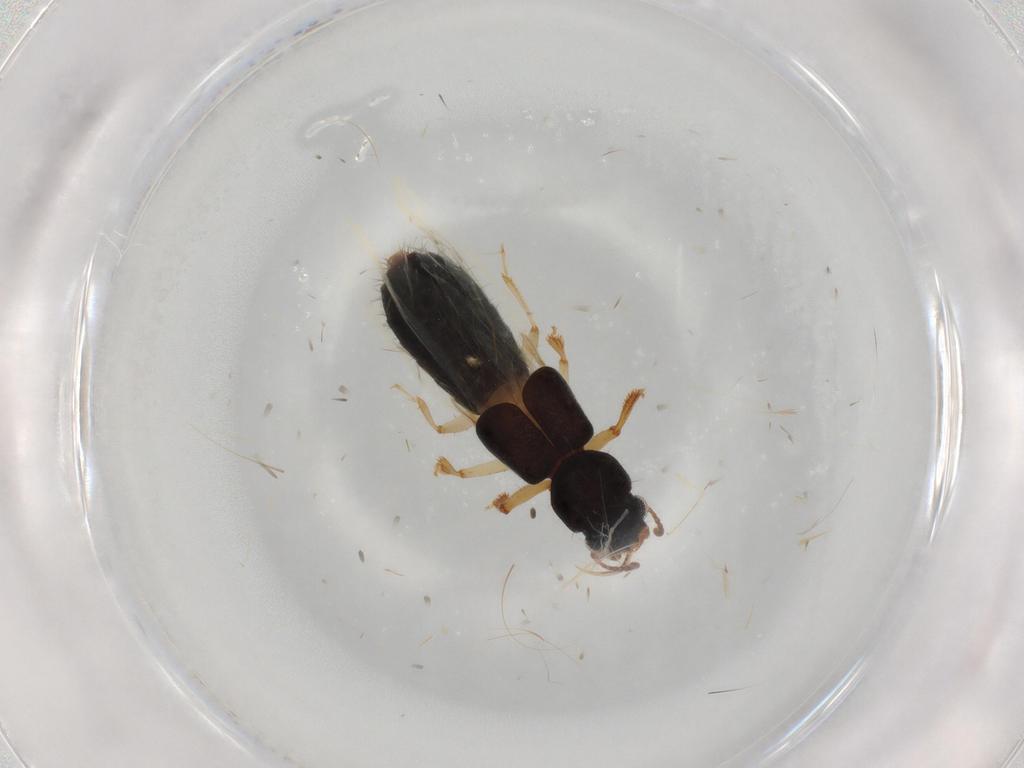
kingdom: Animalia
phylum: Arthropoda
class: Insecta
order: Coleoptera
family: Staphylinidae
